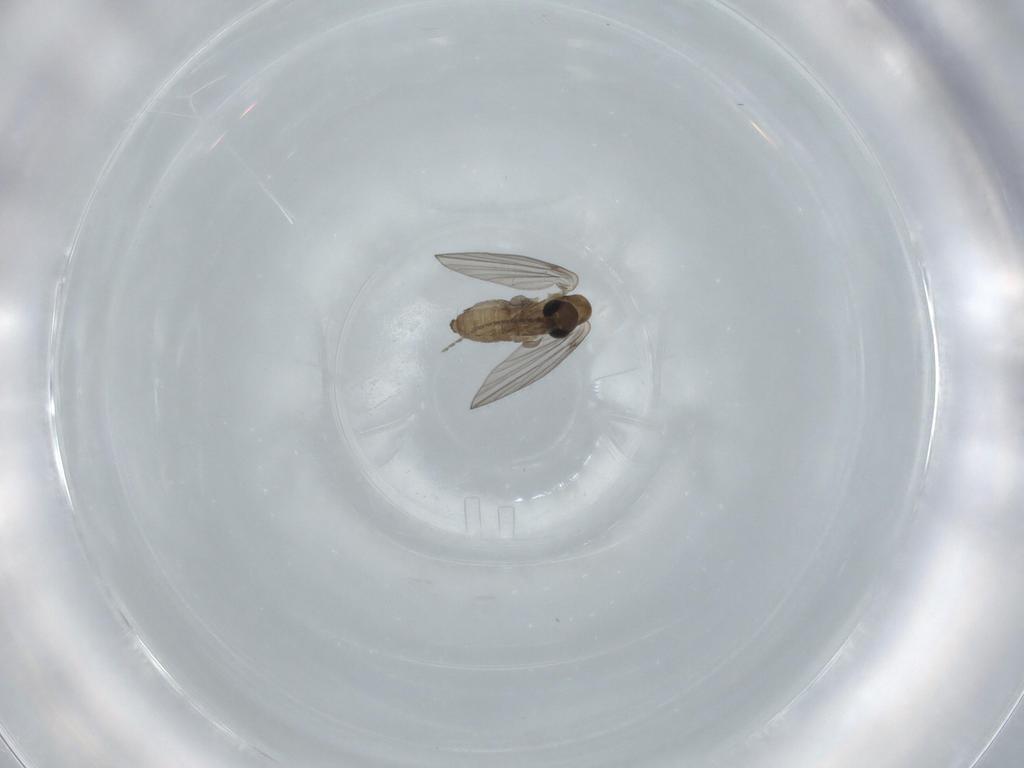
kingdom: Animalia
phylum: Arthropoda
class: Insecta
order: Diptera
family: Psychodidae
